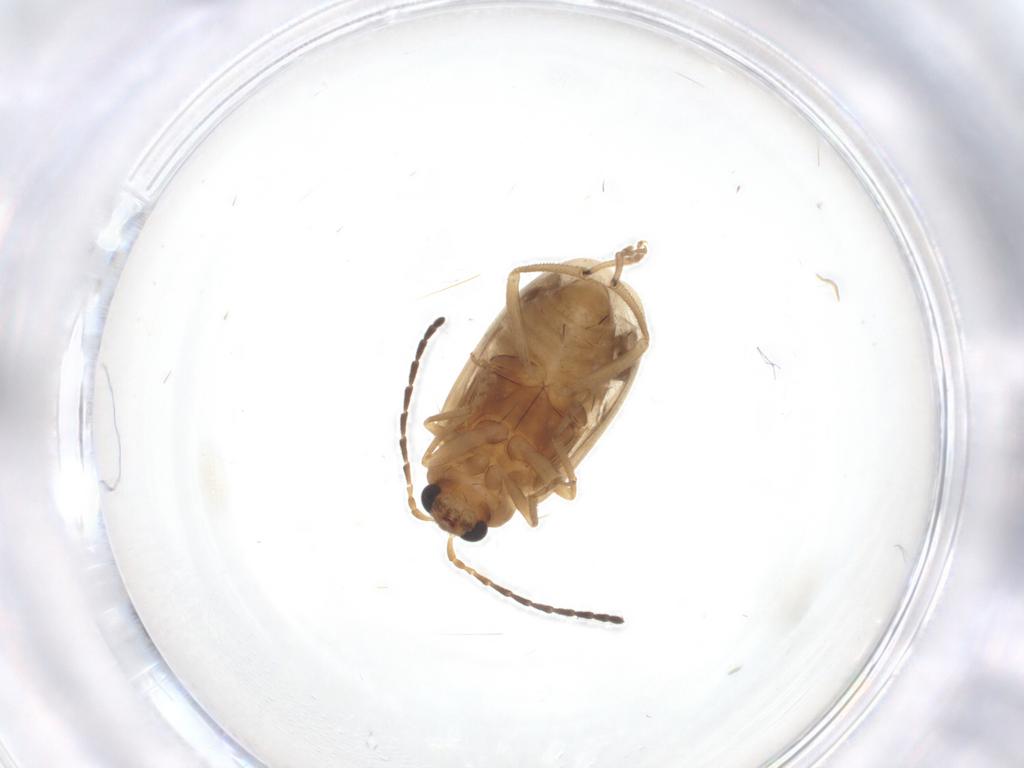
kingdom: Animalia
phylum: Arthropoda
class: Insecta
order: Coleoptera
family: Chrysomelidae
